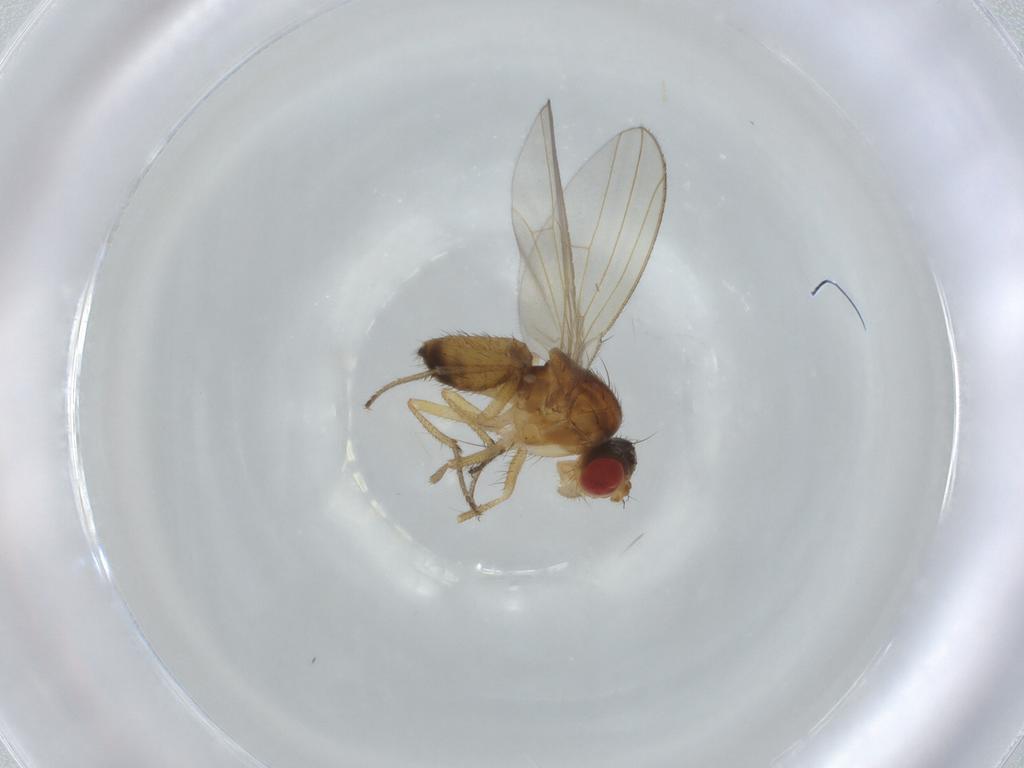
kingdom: Animalia
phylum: Arthropoda
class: Insecta
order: Diptera
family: Drosophilidae
